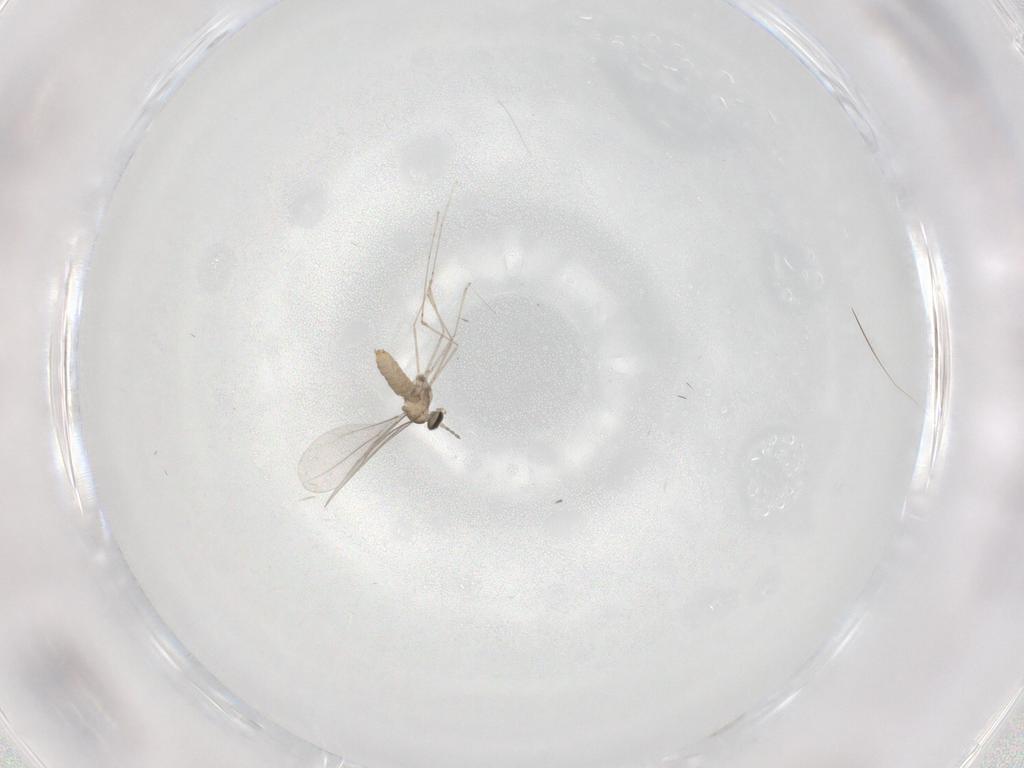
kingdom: Animalia
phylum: Arthropoda
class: Insecta
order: Diptera
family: Cecidomyiidae
